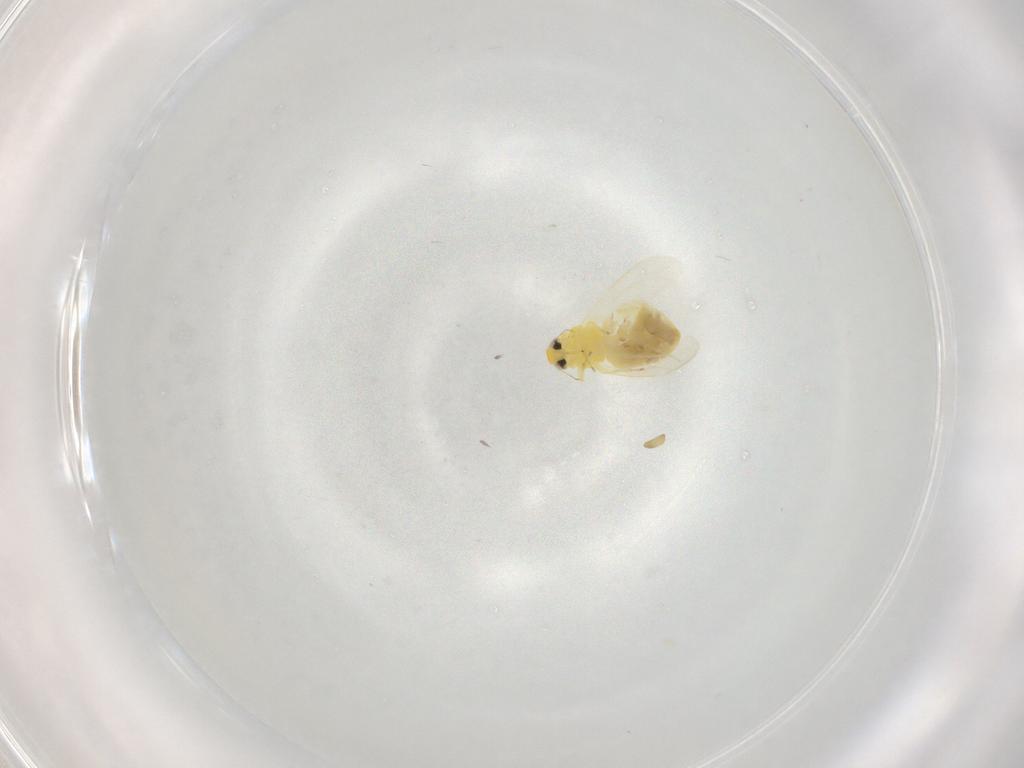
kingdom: Animalia
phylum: Arthropoda
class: Insecta
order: Hemiptera
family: Aleyrodidae
